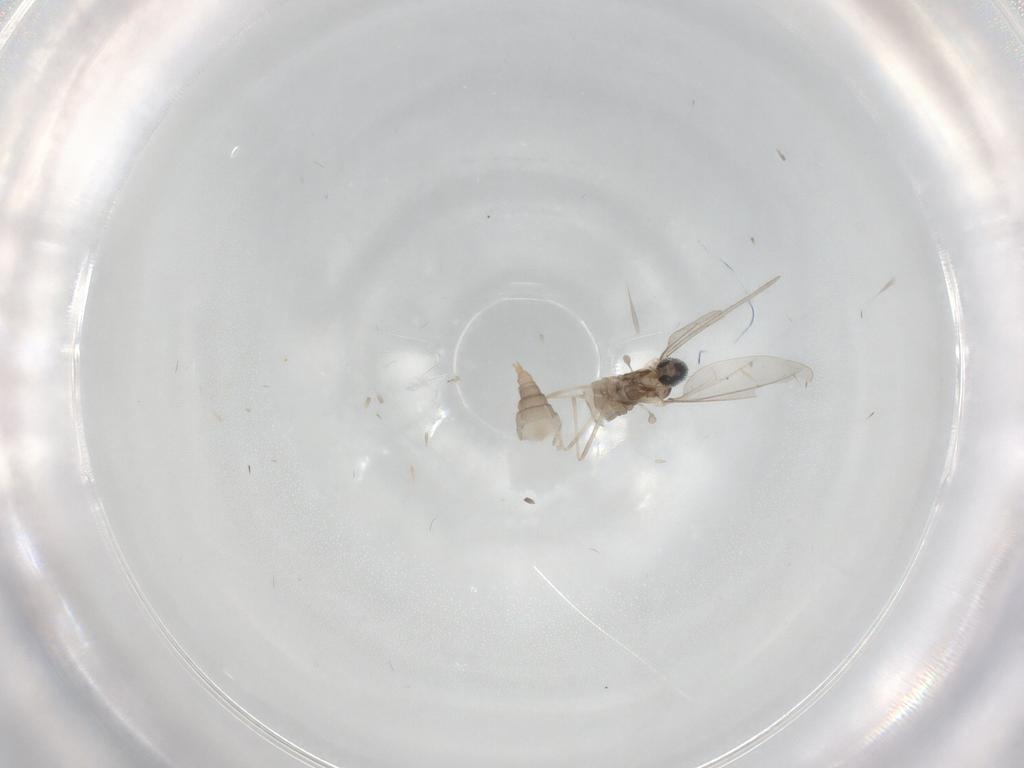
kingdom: Animalia
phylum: Arthropoda
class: Insecta
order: Diptera
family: Cecidomyiidae
